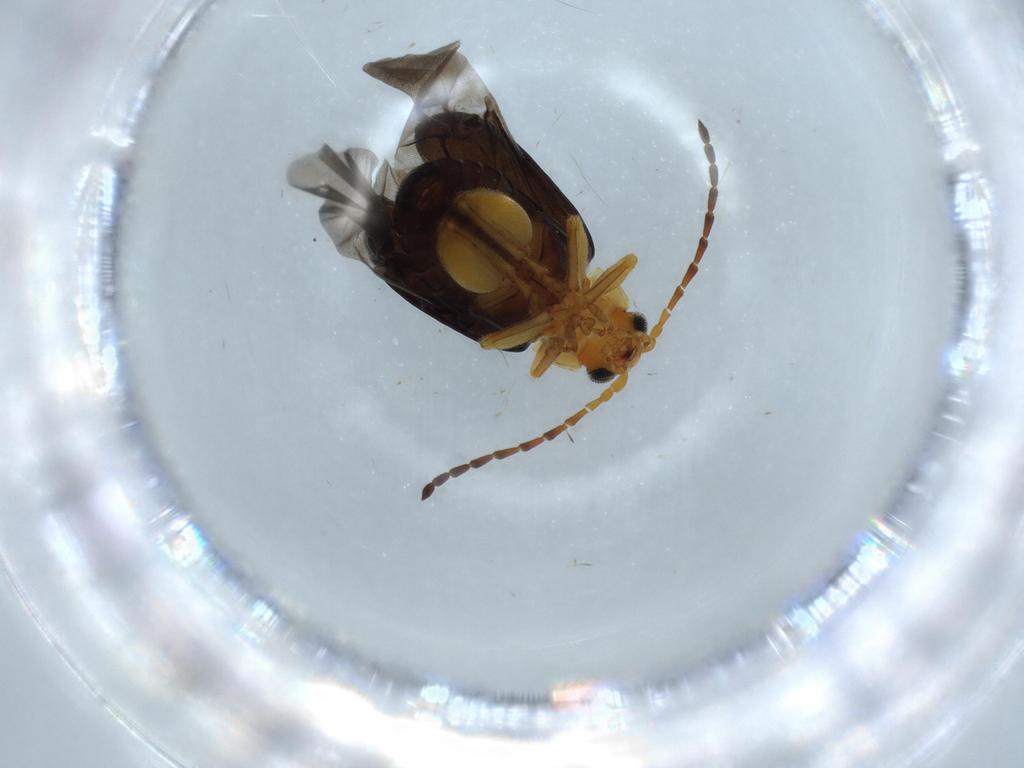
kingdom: Animalia
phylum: Arthropoda
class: Insecta
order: Coleoptera
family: Chrysomelidae
